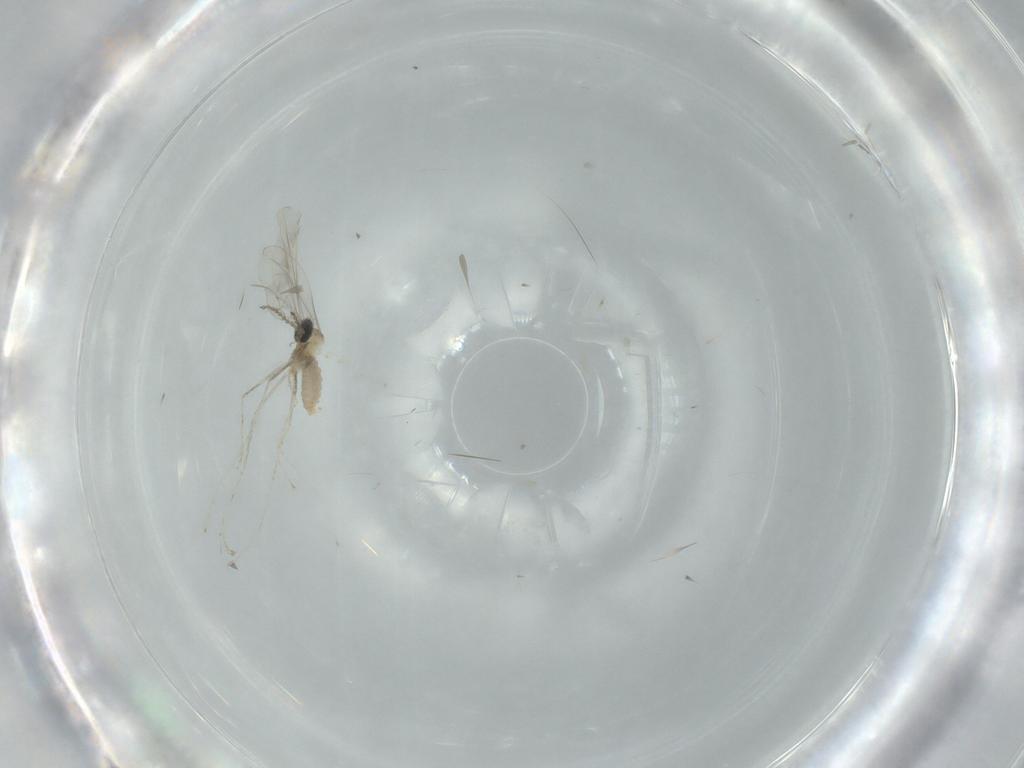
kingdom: Animalia
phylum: Arthropoda
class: Insecta
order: Diptera
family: Cecidomyiidae
